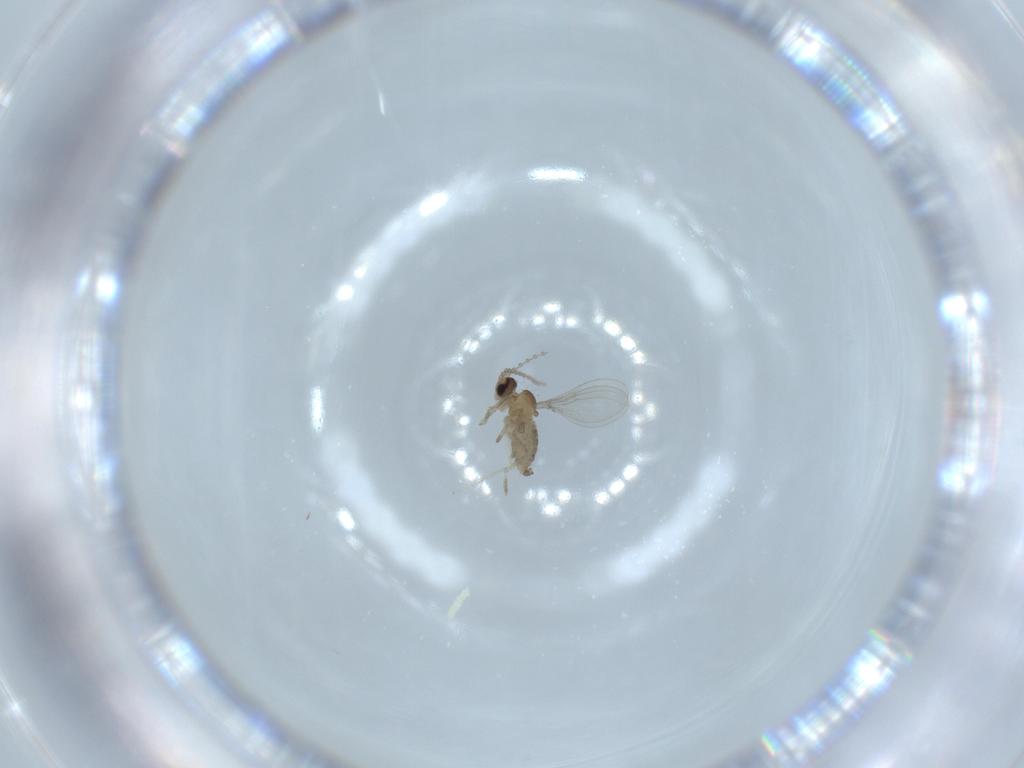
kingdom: Animalia
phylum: Arthropoda
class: Insecta
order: Diptera
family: Cecidomyiidae
